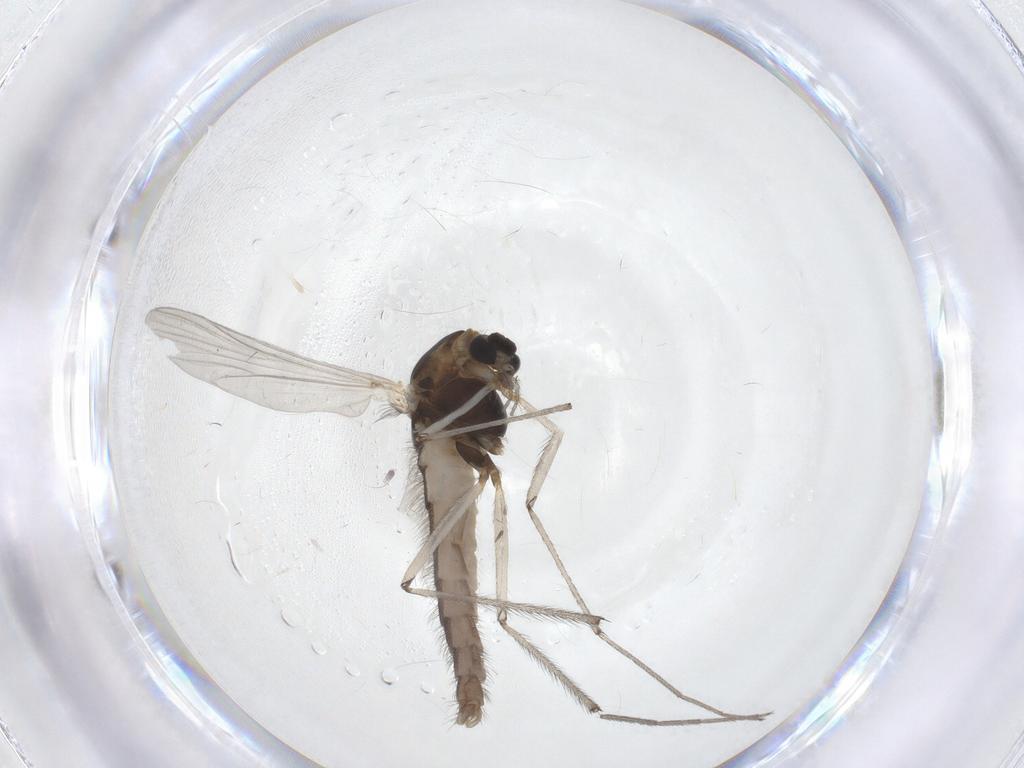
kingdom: Animalia
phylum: Arthropoda
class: Insecta
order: Diptera
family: Chironomidae
